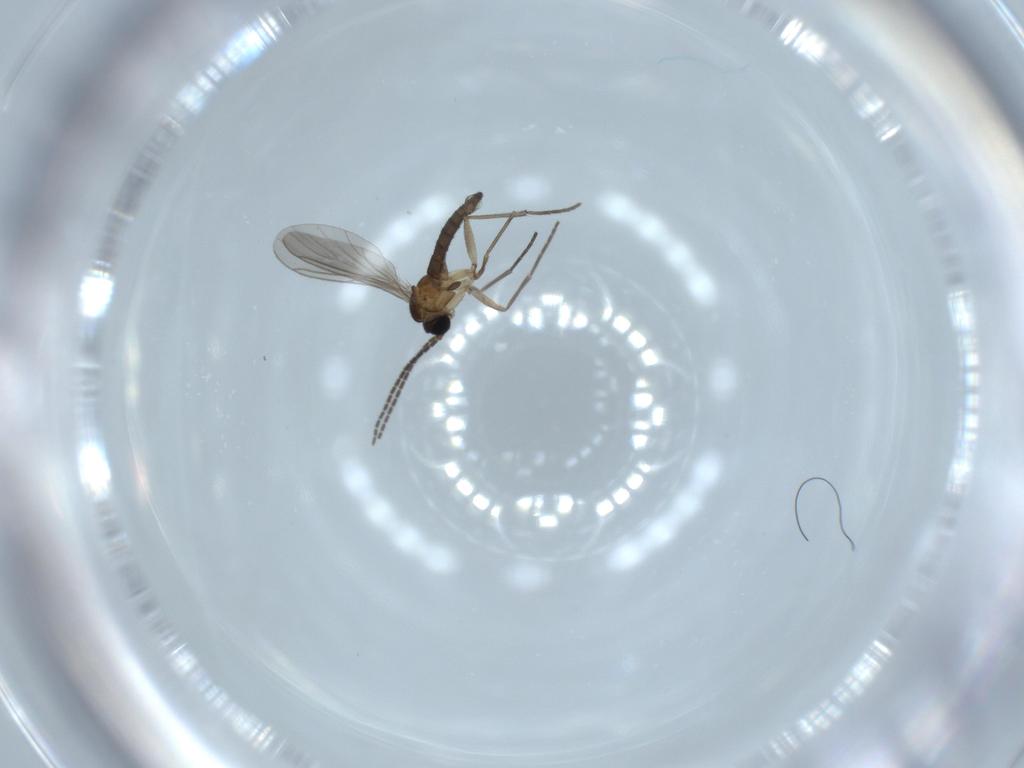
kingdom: Animalia
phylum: Arthropoda
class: Insecta
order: Diptera
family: Sciaridae
